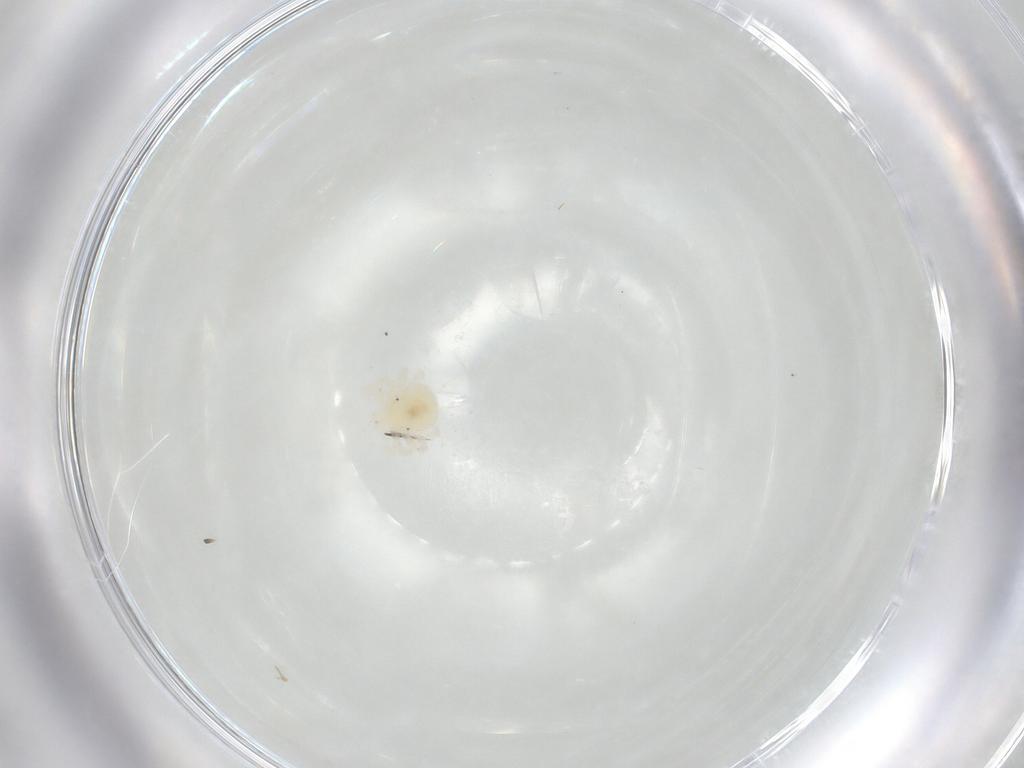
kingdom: Animalia
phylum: Arthropoda
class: Arachnida
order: Trombidiformes
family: Anystidae
